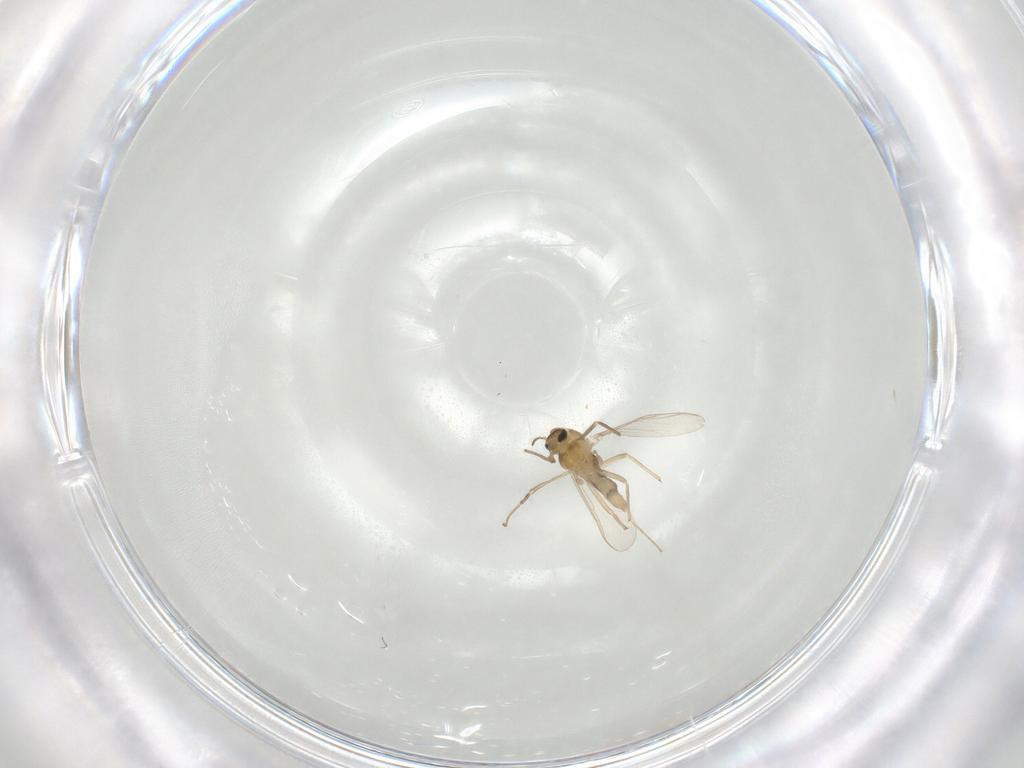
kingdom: Animalia
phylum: Arthropoda
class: Insecta
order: Diptera
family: Chironomidae
